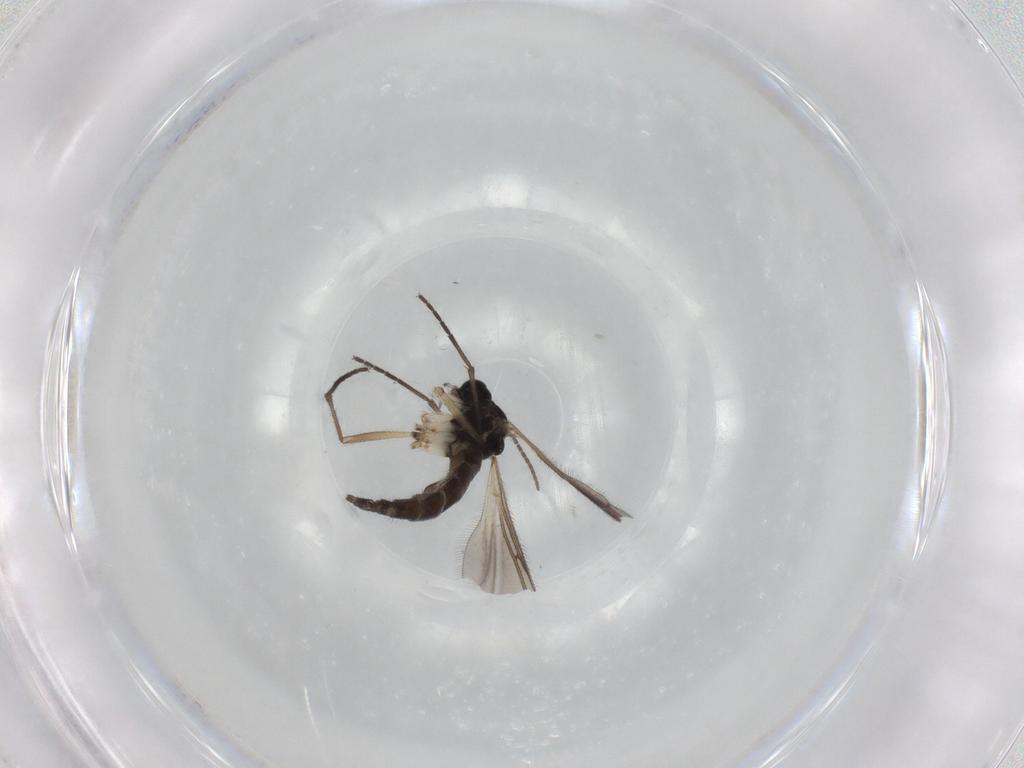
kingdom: Animalia
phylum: Arthropoda
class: Insecta
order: Diptera
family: Sciaridae
